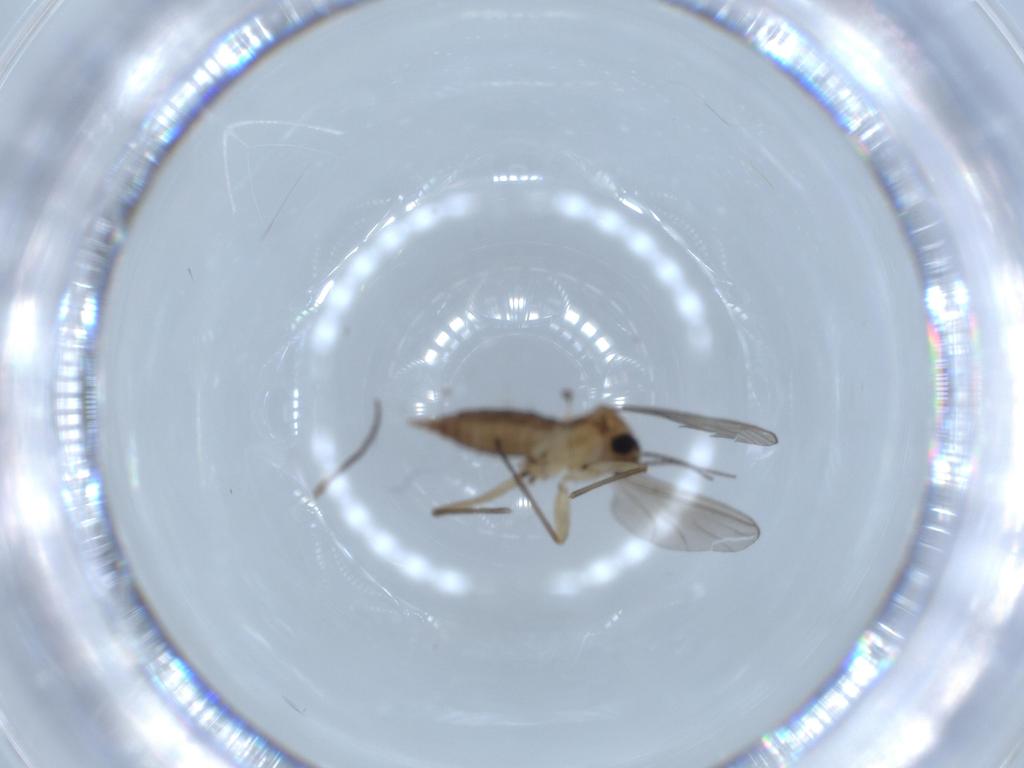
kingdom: Animalia
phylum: Arthropoda
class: Insecta
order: Diptera
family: Sciaridae
